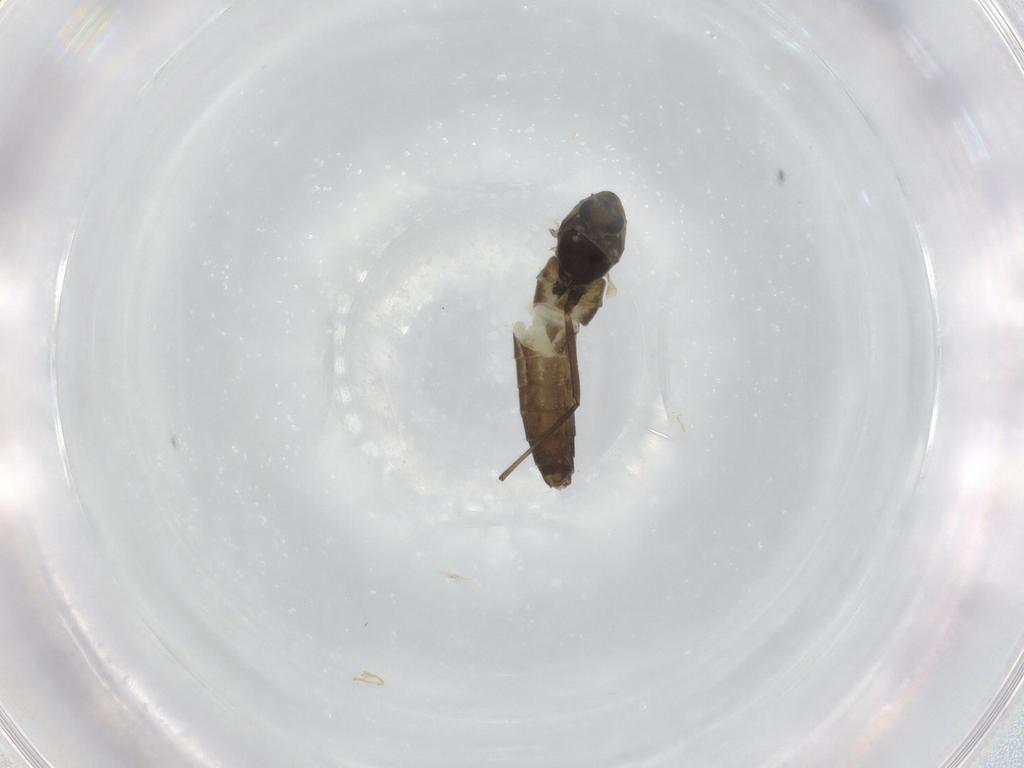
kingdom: Animalia
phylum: Arthropoda
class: Insecta
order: Diptera
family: Chironomidae
